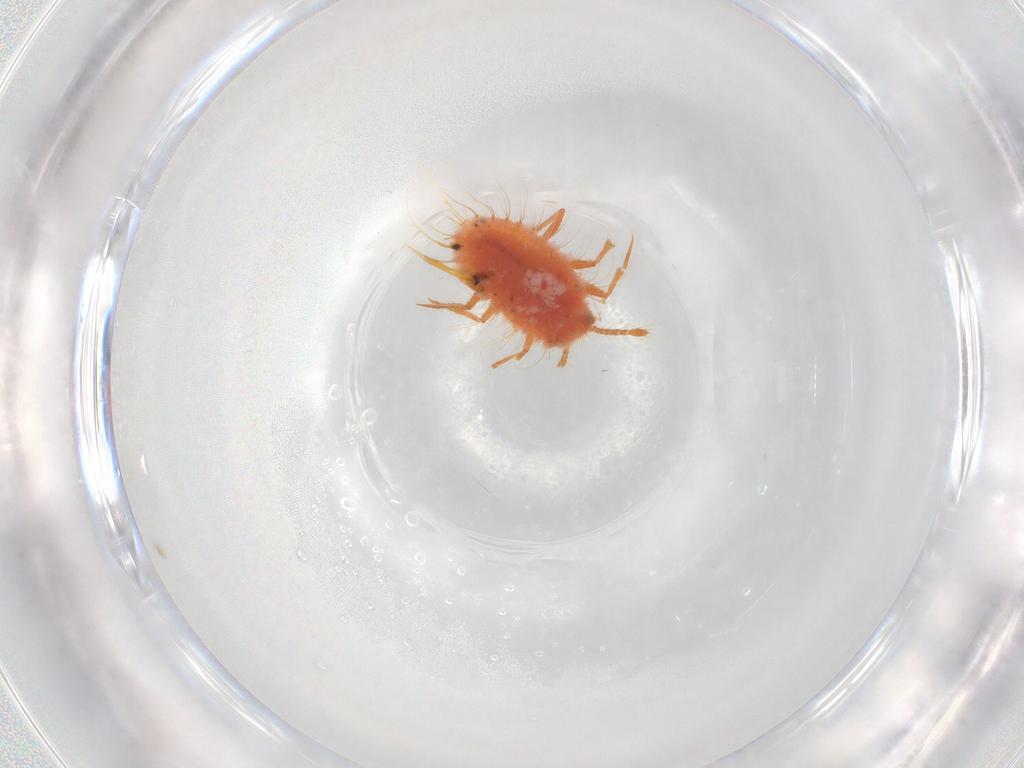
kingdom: Animalia
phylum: Arthropoda
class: Insecta
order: Hemiptera
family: Coccoidea_incertae_sedis
